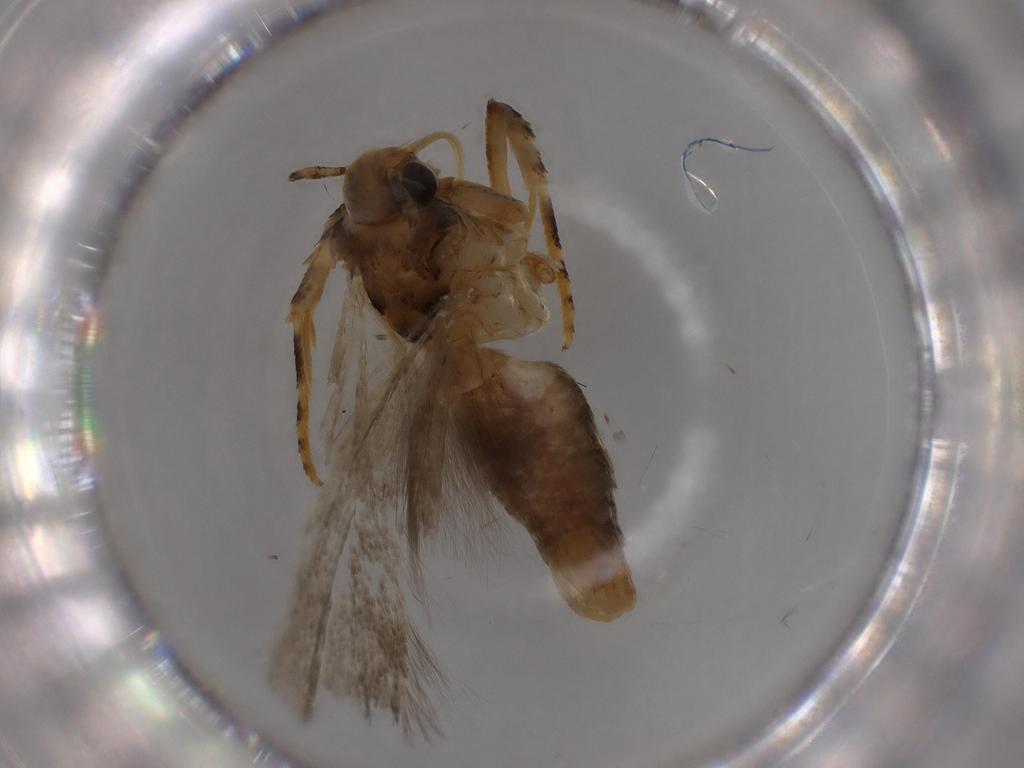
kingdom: Animalia
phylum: Arthropoda
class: Insecta
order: Lepidoptera
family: Gelechiidae
